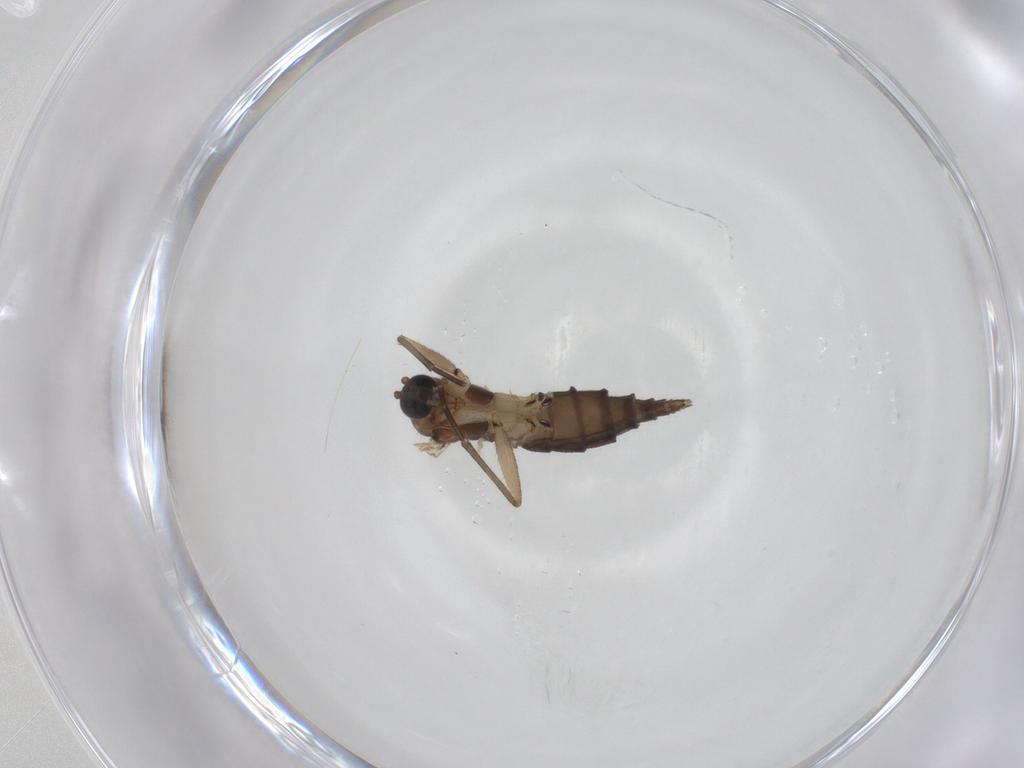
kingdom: Animalia
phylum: Arthropoda
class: Insecta
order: Diptera
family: Sciaridae
